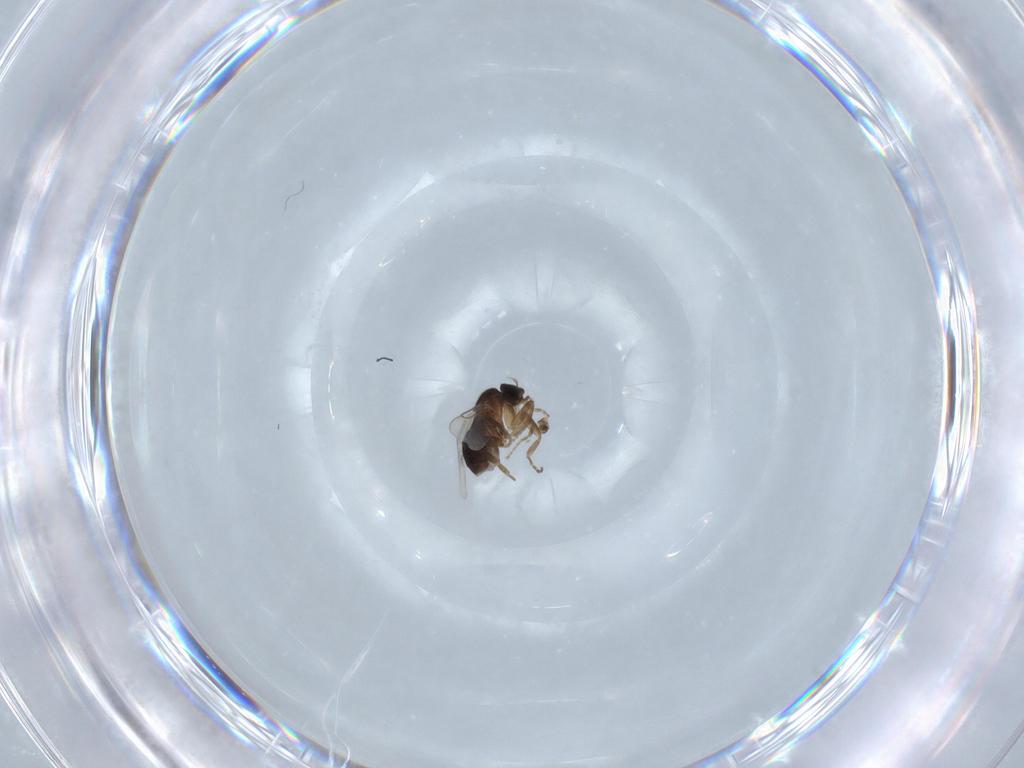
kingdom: Animalia
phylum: Arthropoda
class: Insecta
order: Diptera
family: Phoridae
